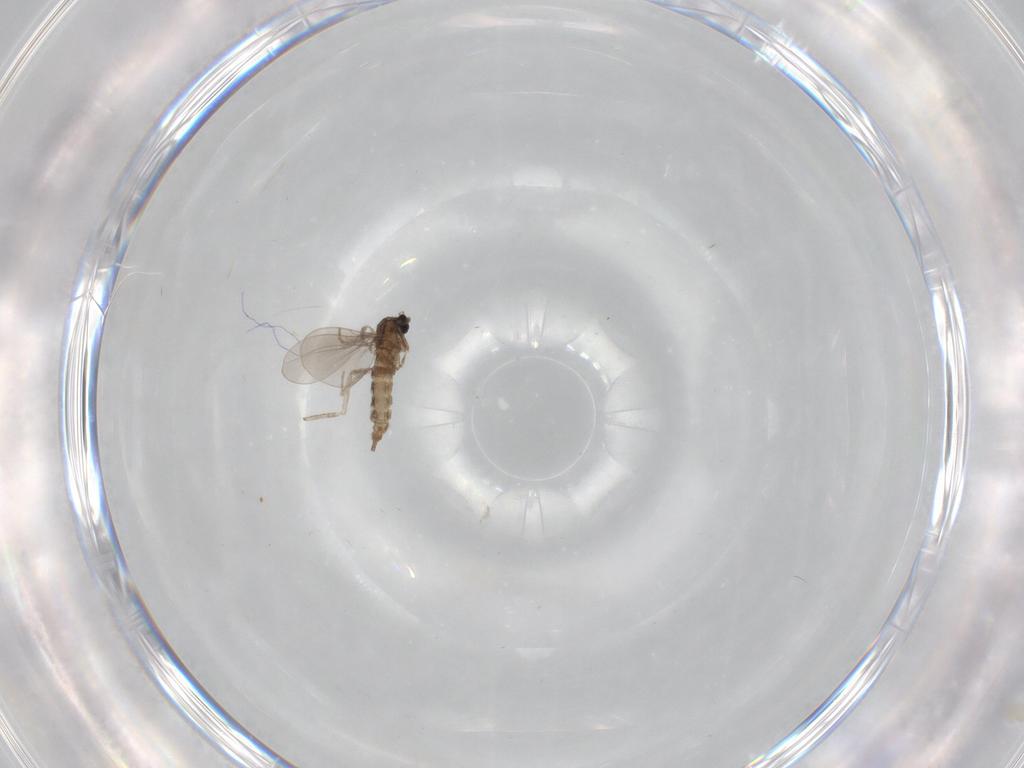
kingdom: Animalia
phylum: Arthropoda
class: Insecta
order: Diptera
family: Cecidomyiidae
